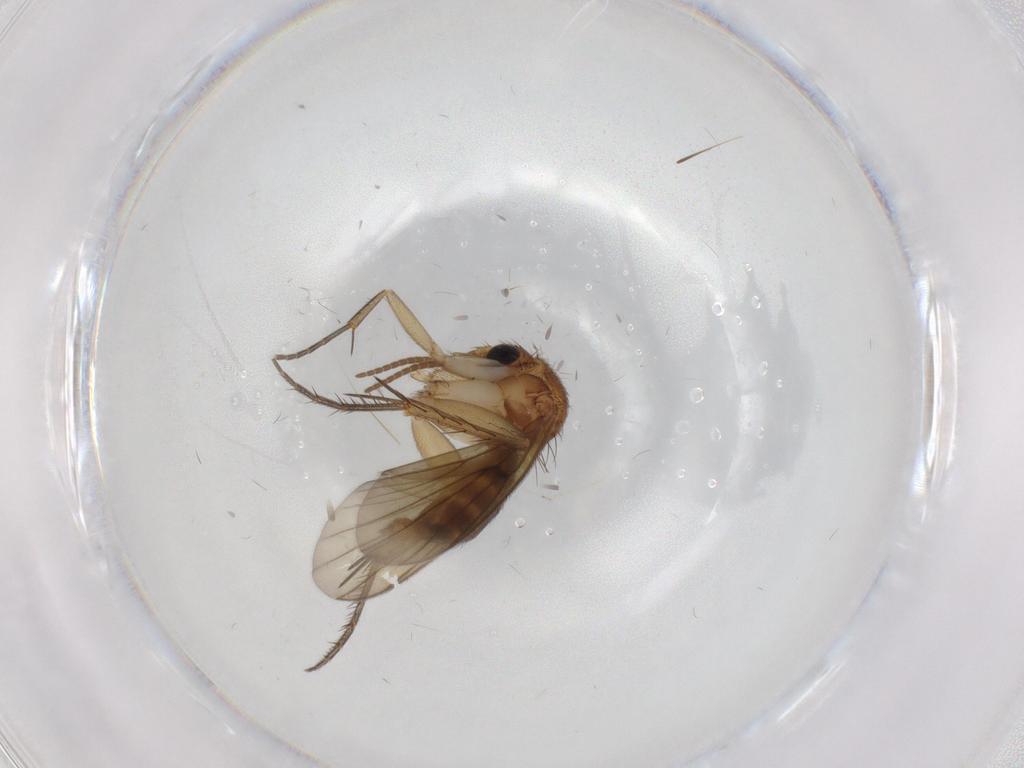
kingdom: Animalia
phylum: Arthropoda
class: Insecta
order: Diptera
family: Mycetophilidae
